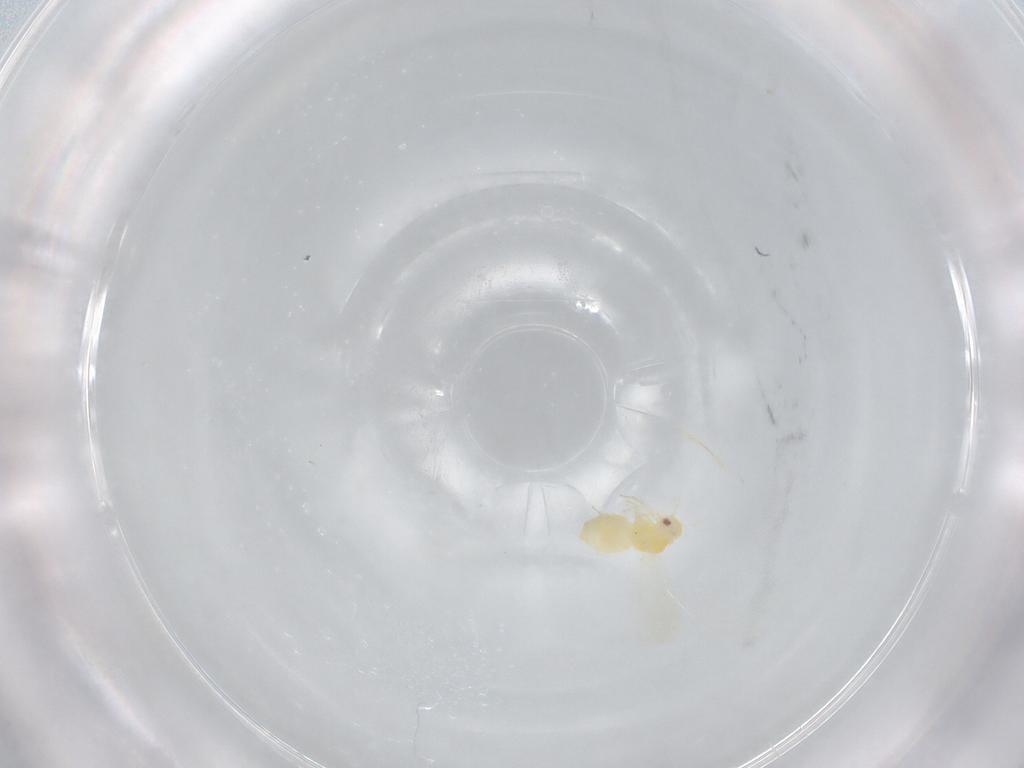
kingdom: Animalia
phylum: Arthropoda
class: Insecta
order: Hemiptera
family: Aleyrodidae
